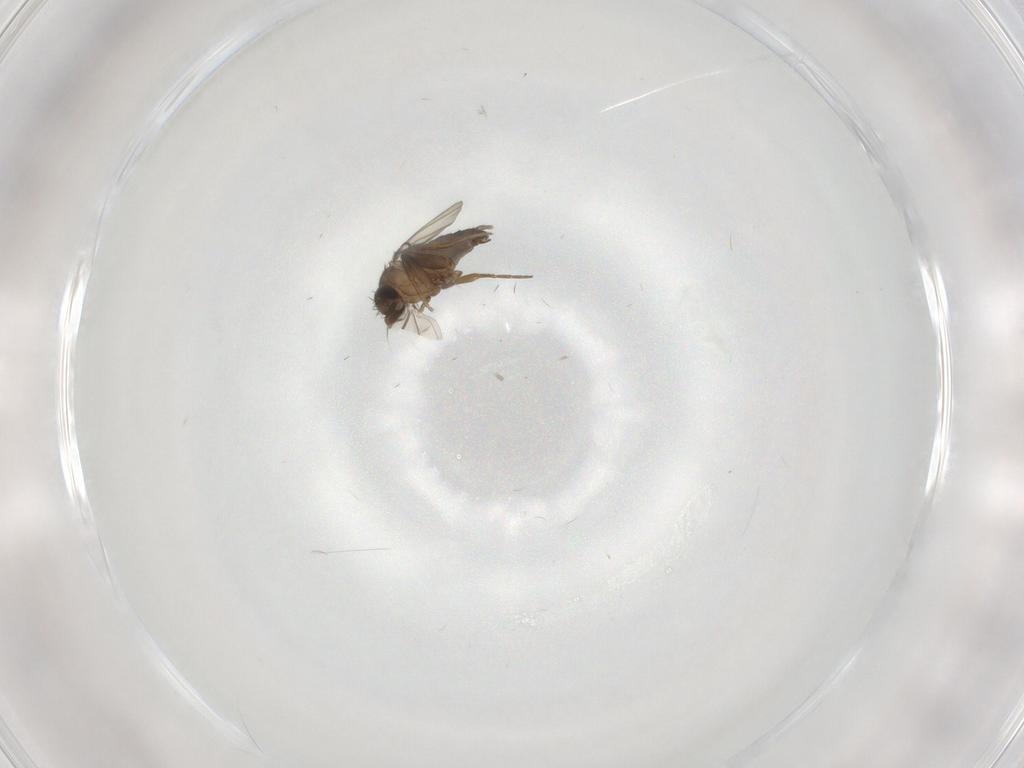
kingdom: Animalia
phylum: Arthropoda
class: Insecta
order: Diptera
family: Phoridae
